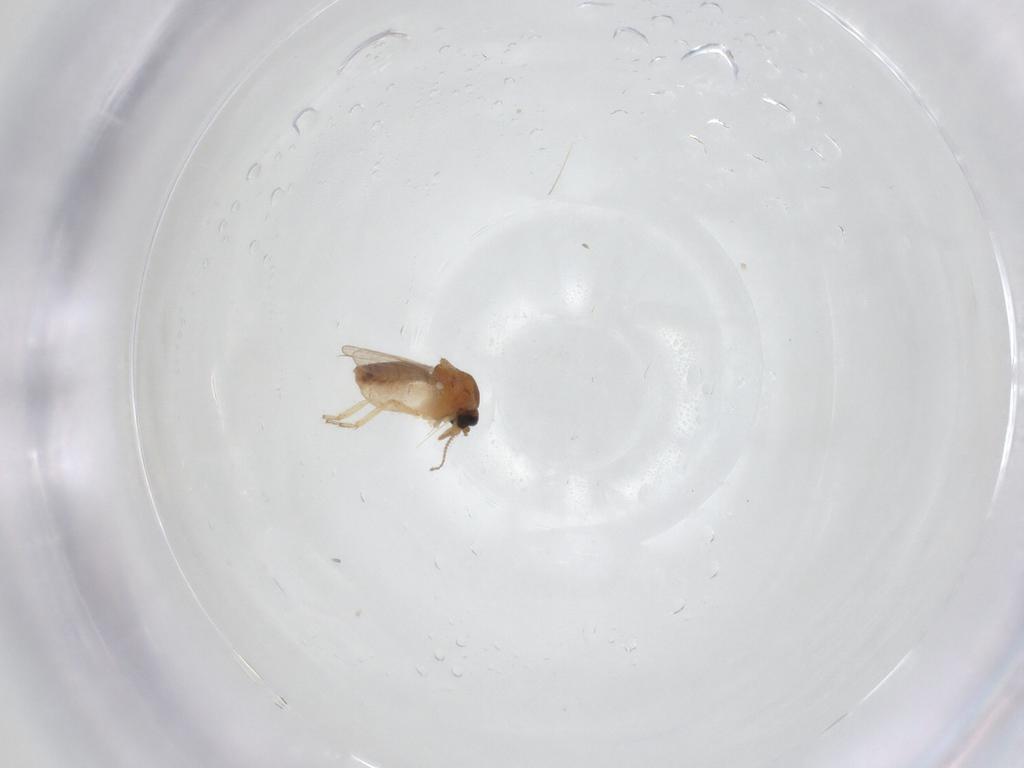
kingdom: Animalia
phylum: Arthropoda
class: Insecta
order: Diptera
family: Ceratopogonidae
